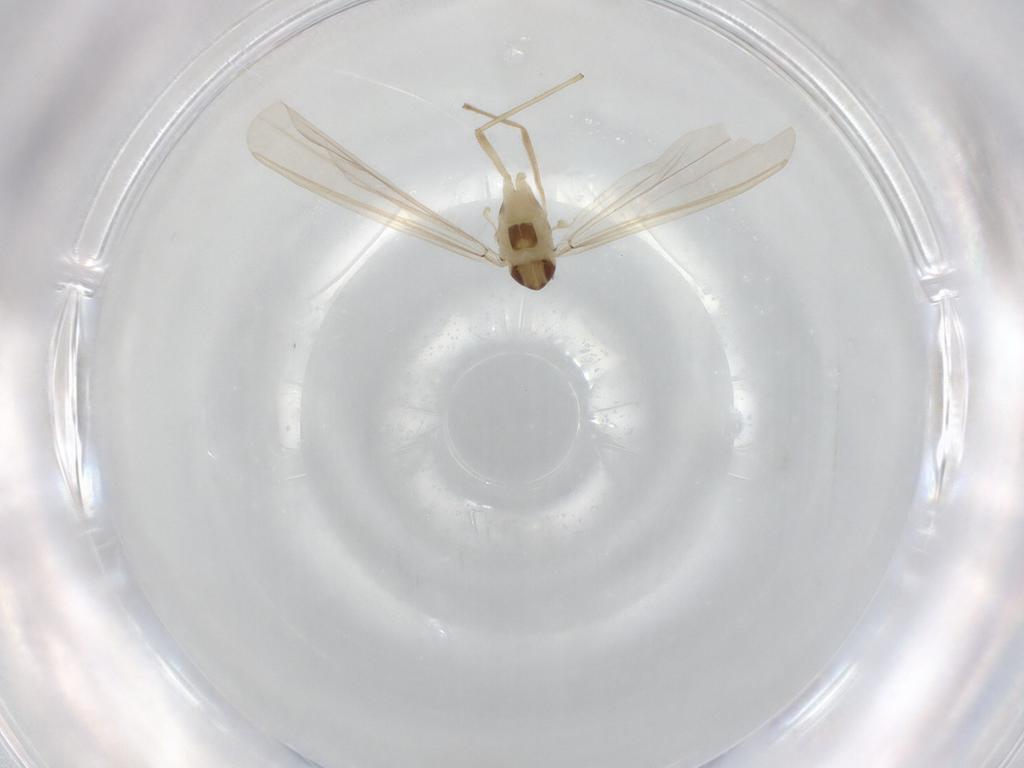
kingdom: Animalia
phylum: Arthropoda
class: Insecta
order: Diptera
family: Chironomidae
